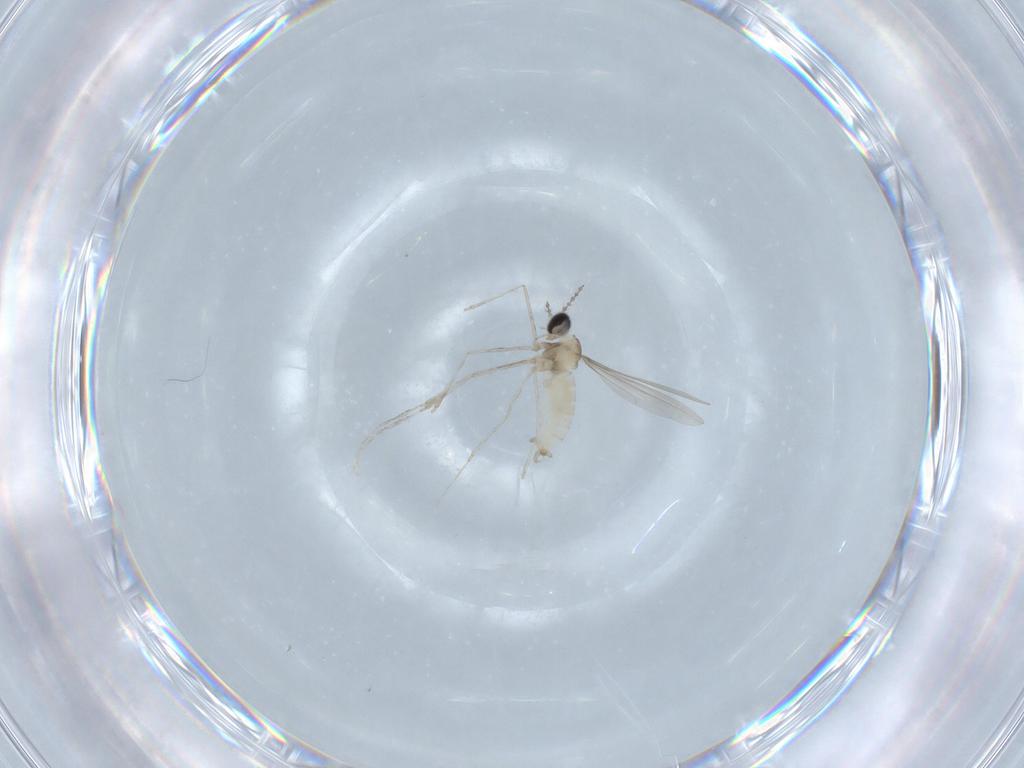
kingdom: Animalia
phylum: Arthropoda
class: Insecta
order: Diptera
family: Cecidomyiidae
